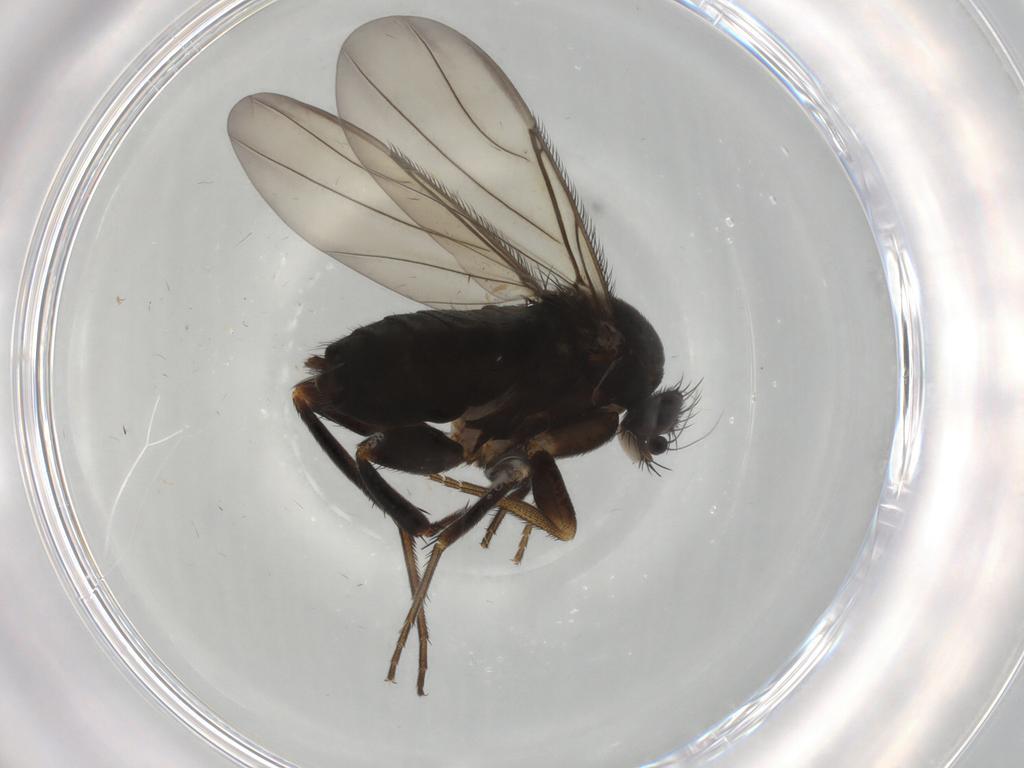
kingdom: Animalia
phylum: Arthropoda
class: Insecta
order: Diptera
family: Phoridae
